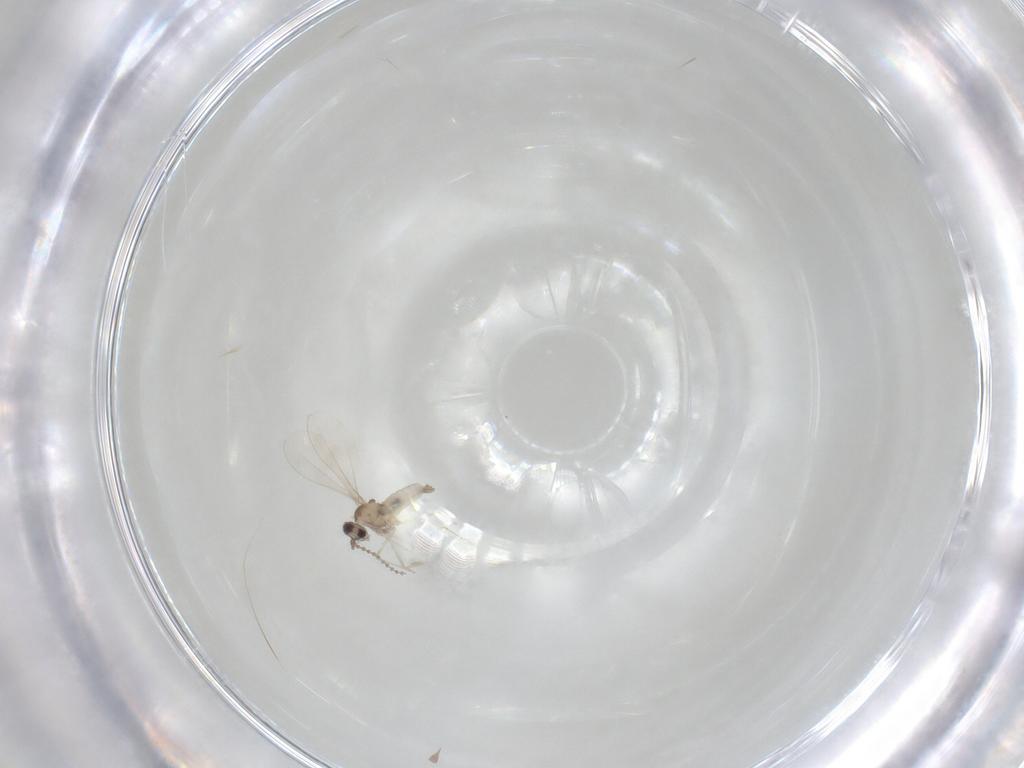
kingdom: Animalia
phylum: Arthropoda
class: Insecta
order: Diptera
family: Cecidomyiidae
